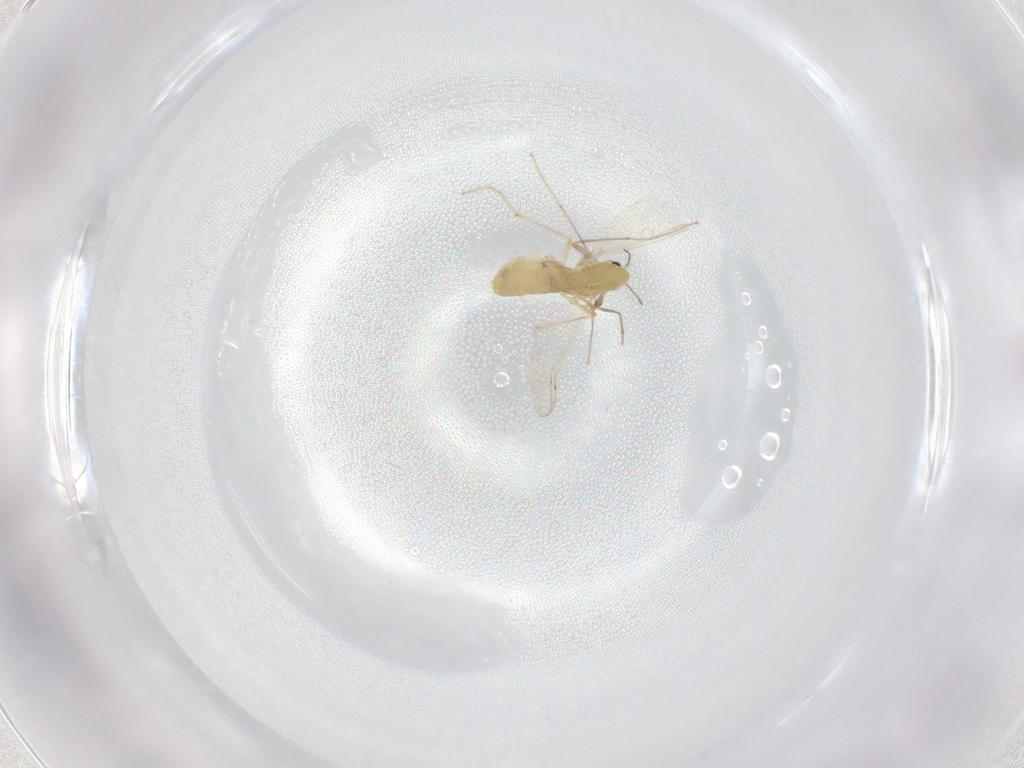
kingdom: Animalia
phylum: Arthropoda
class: Insecta
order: Diptera
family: Chironomidae
